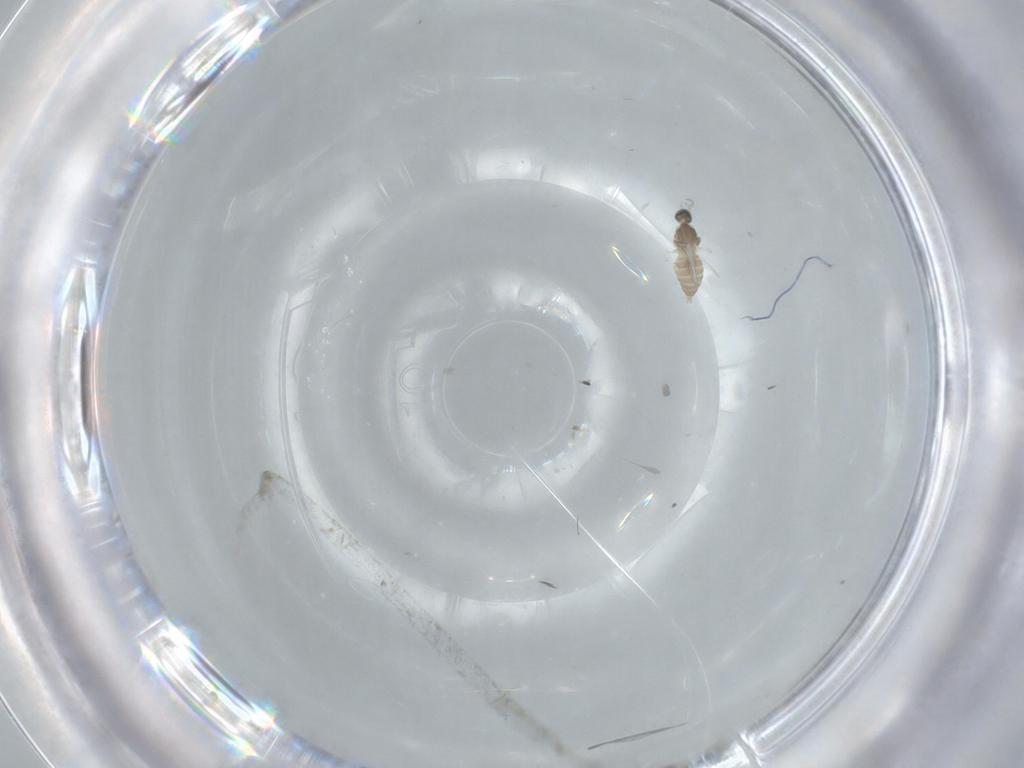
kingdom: Animalia
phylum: Arthropoda
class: Insecta
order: Diptera
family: Cecidomyiidae
